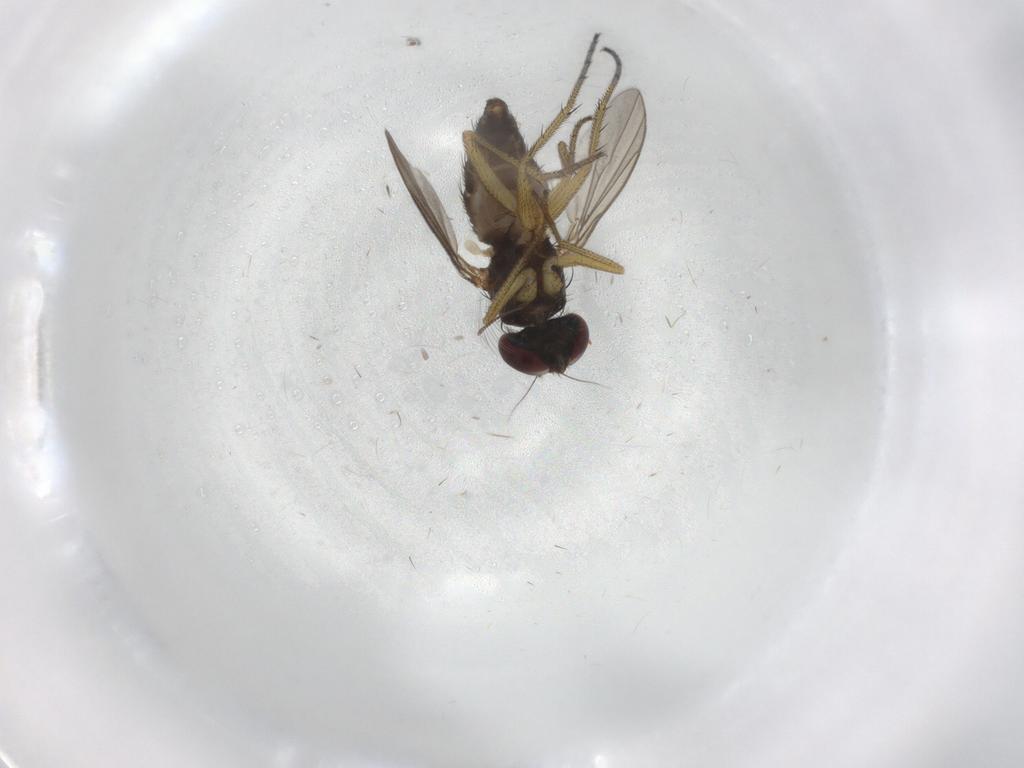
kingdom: Animalia
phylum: Arthropoda
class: Insecta
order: Diptera
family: Dolichopodidae
